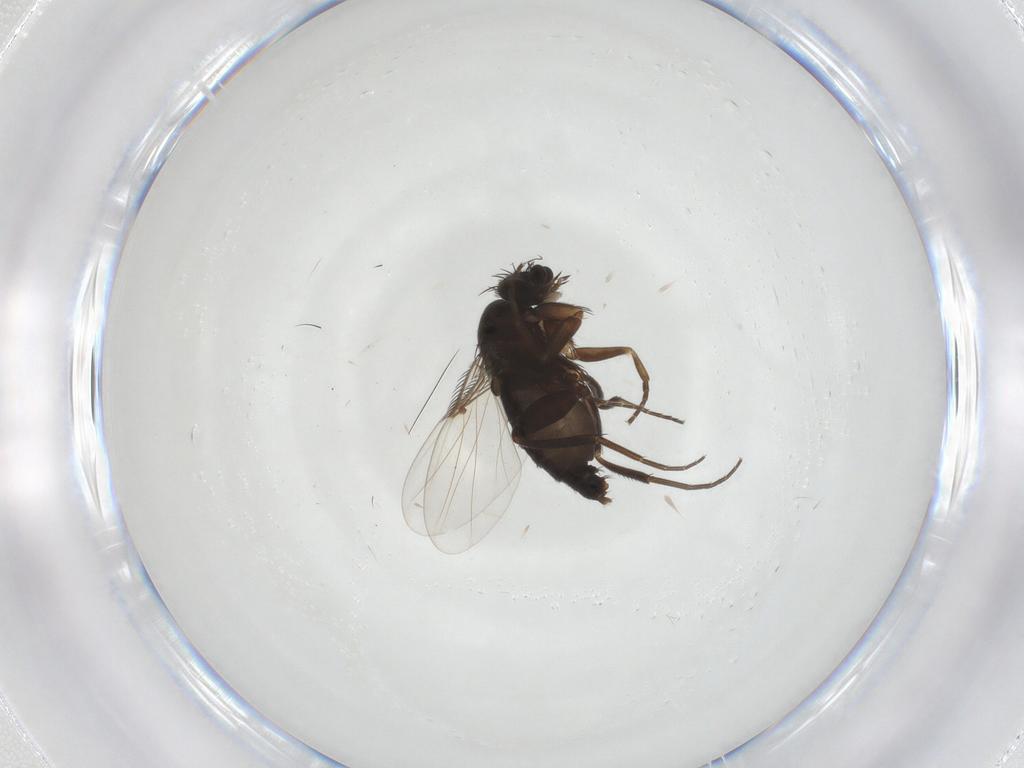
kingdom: Animalia
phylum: Arthropoda
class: Insecta
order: Diptera
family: Phoridae
